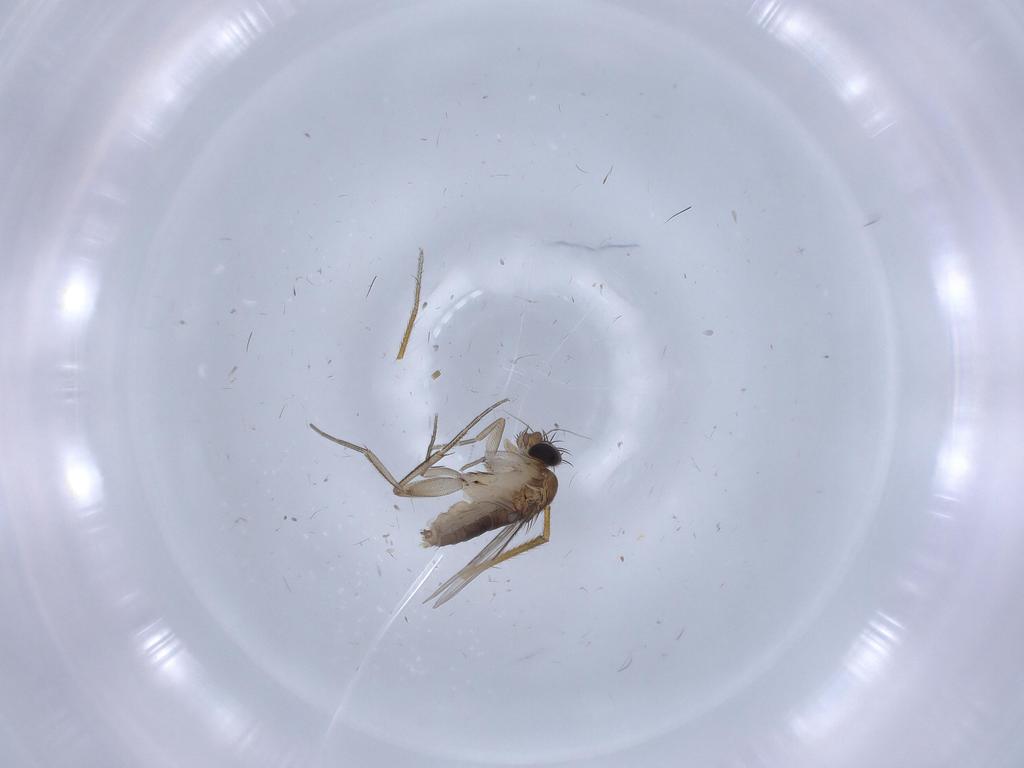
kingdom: Animalia
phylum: Arthropoda
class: Insecta
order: Diptera
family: Phoridae
